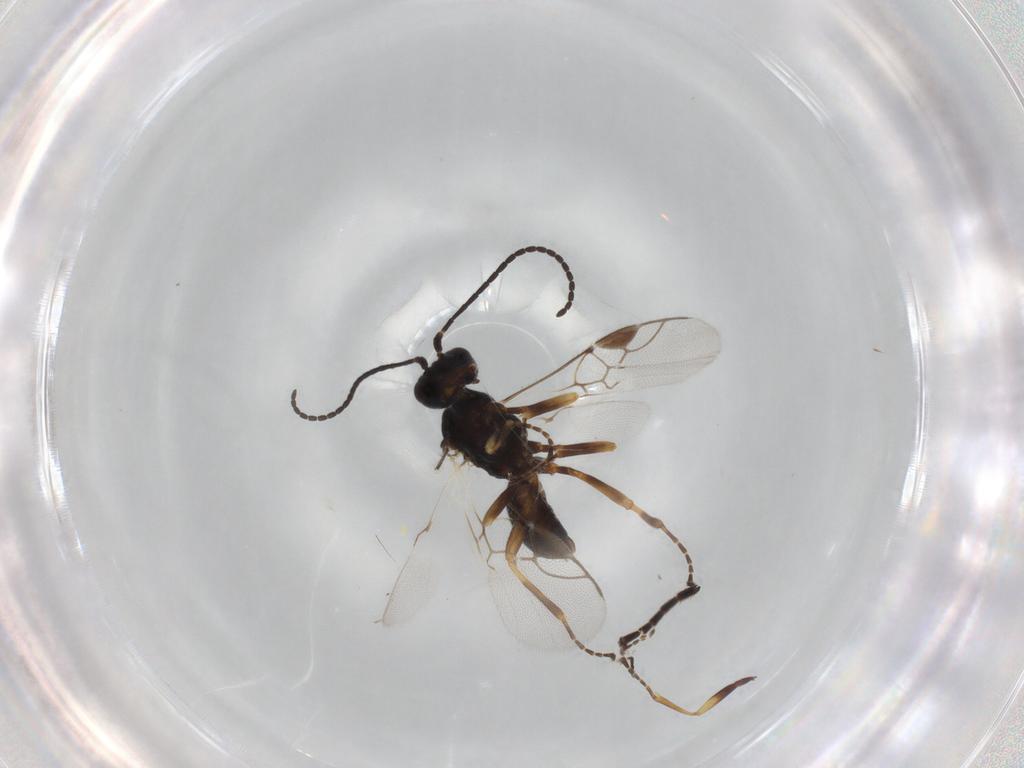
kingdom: Animalia
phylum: Arthropoda
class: Insecta
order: Hymenoptera
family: Braconidae
